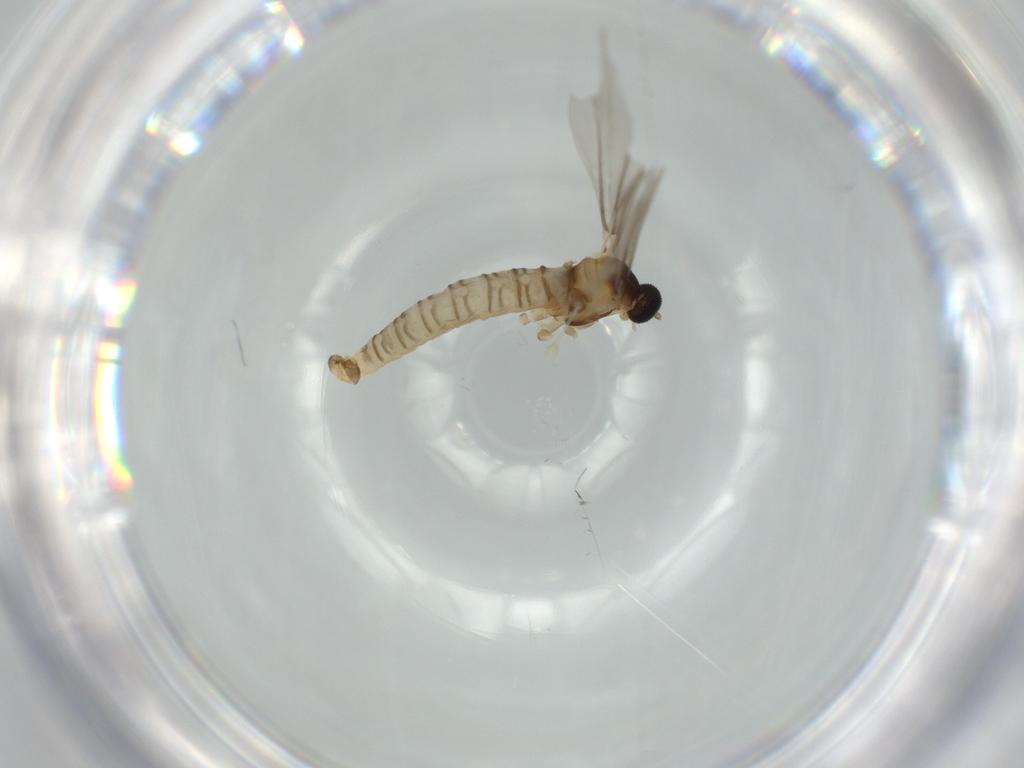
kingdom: Animalia
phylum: Arthropoda
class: Insecta
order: Diptera
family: Cecidomyiidae
